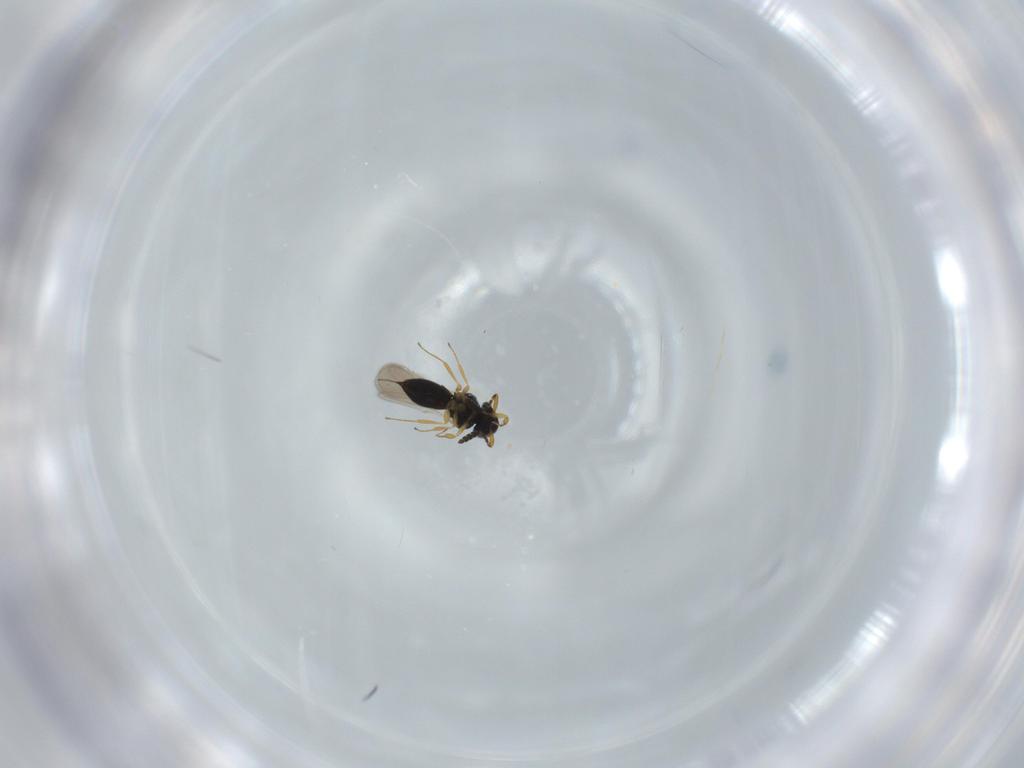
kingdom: Animalia
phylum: Arthropoda
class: Insecta
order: Hymenoptera
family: Scelionidae
